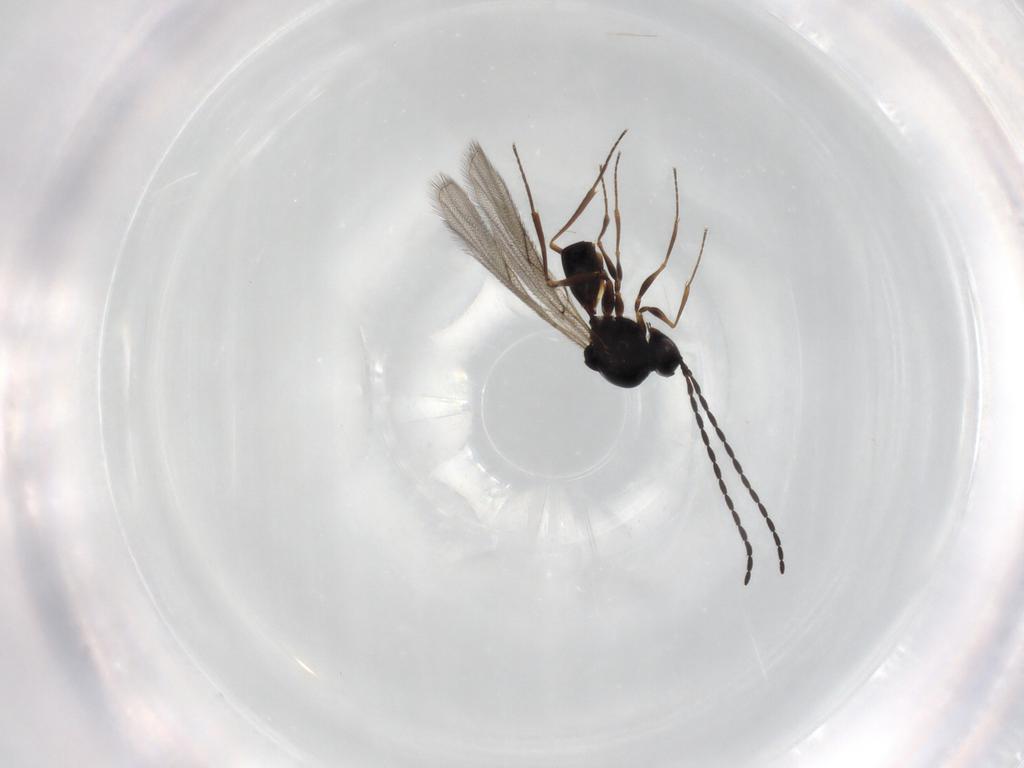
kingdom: Animalia
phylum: Arthropoda
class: Insecta
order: Hymenoptera
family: Figitidae
